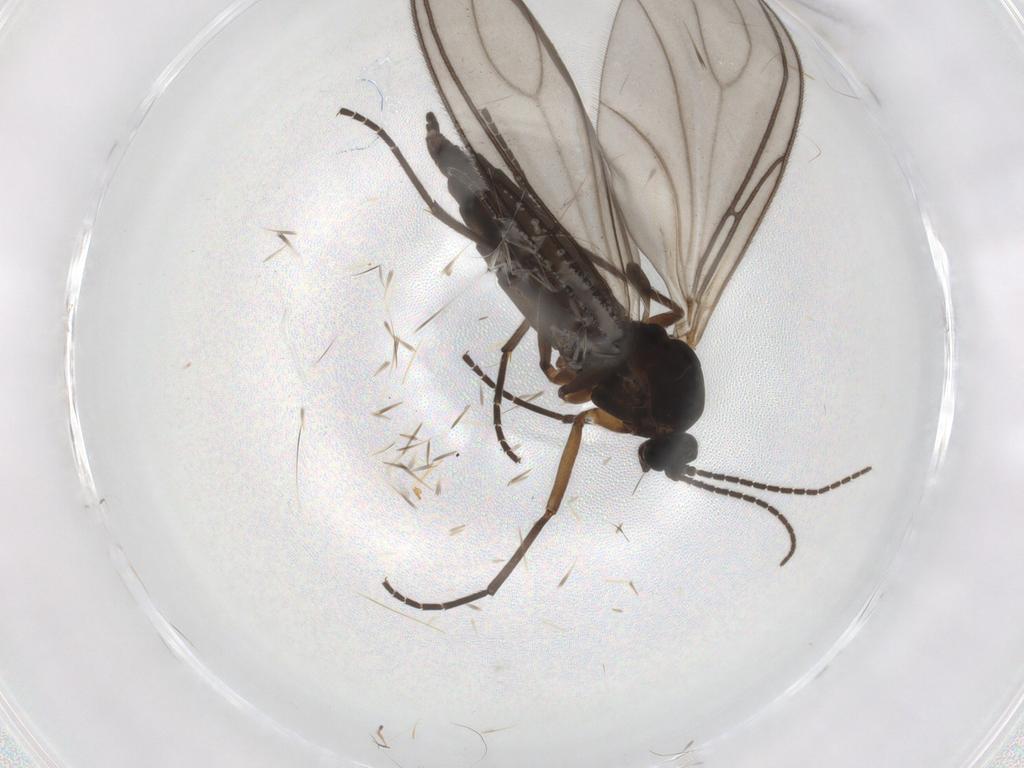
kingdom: Animalia
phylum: Arthropoda
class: Insecta
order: Diptera
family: Sciaridae
